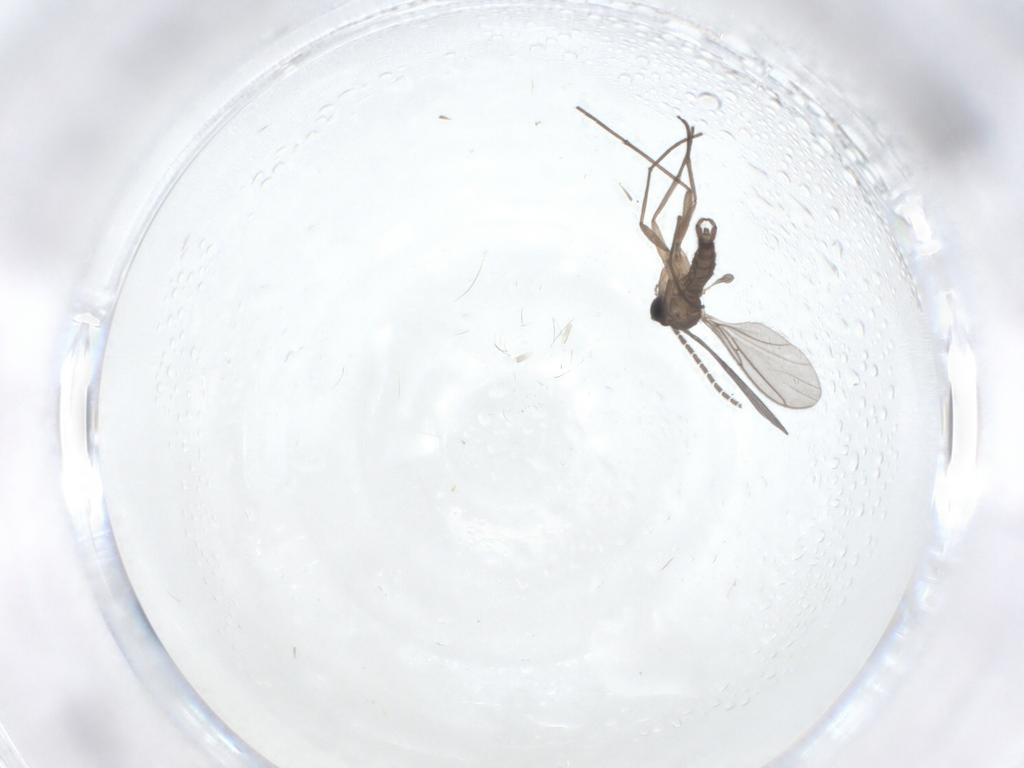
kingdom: Animalia
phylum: Arthropoda
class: Insecta
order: Diptera
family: Sciaridae
